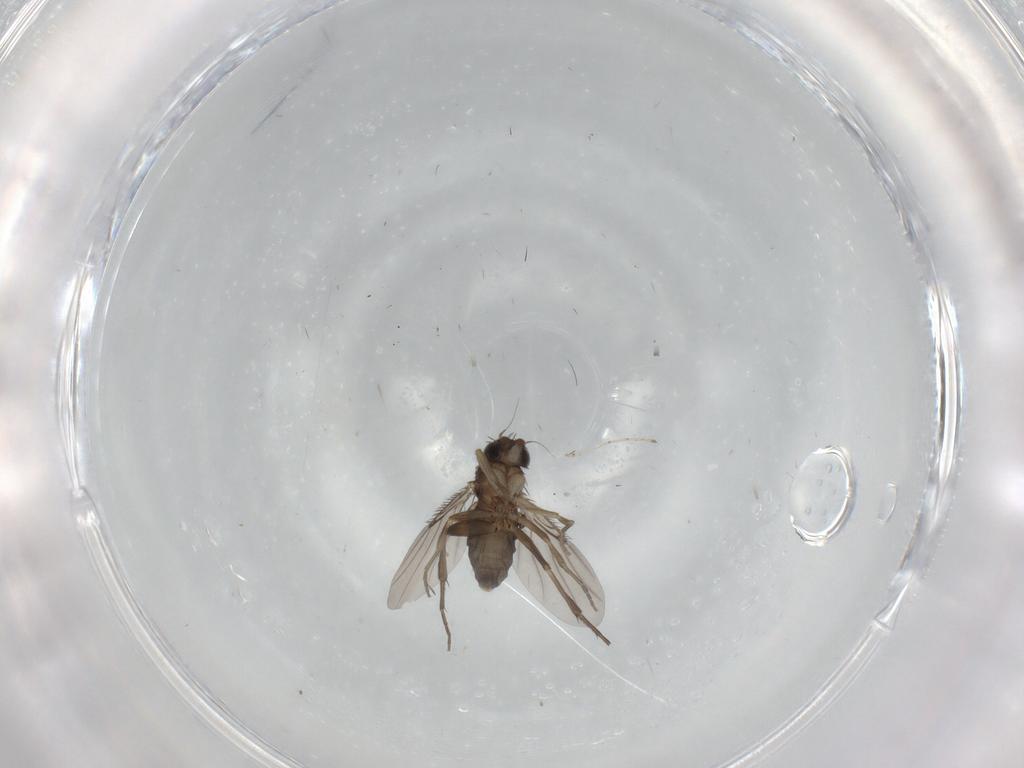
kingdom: Animalia
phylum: Arthropoda
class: Insecta
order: Diptera
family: Phoridae
